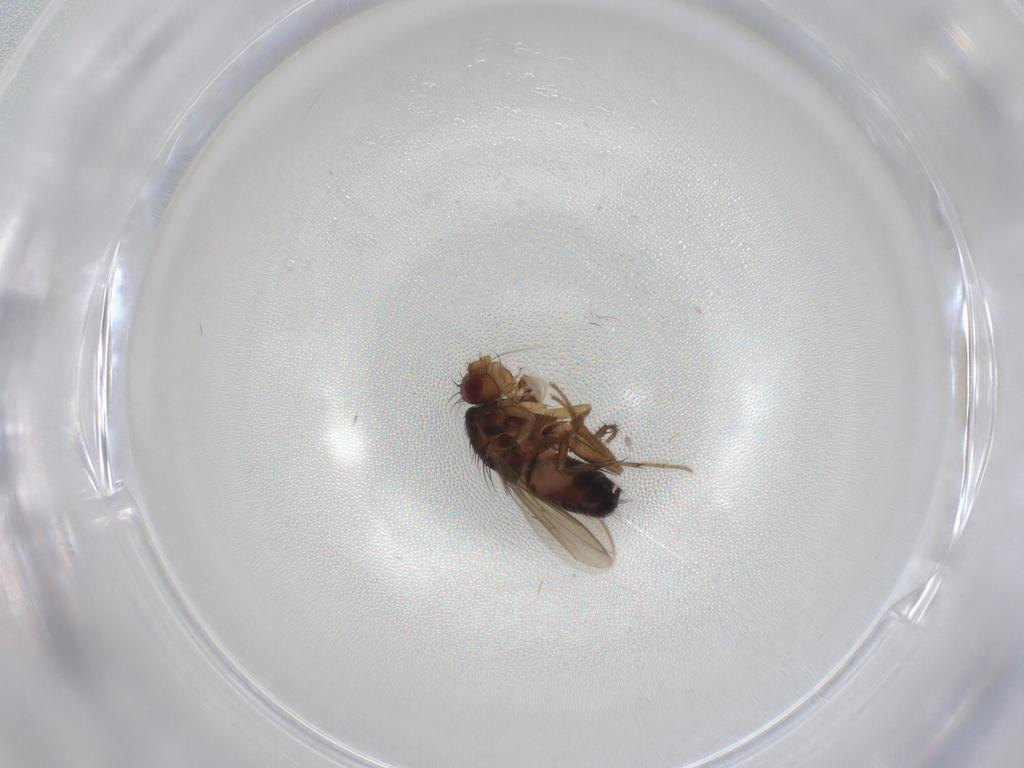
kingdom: Animalia
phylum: Arthropoda
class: Insecta
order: Diptera
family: Sphaeroceridae
